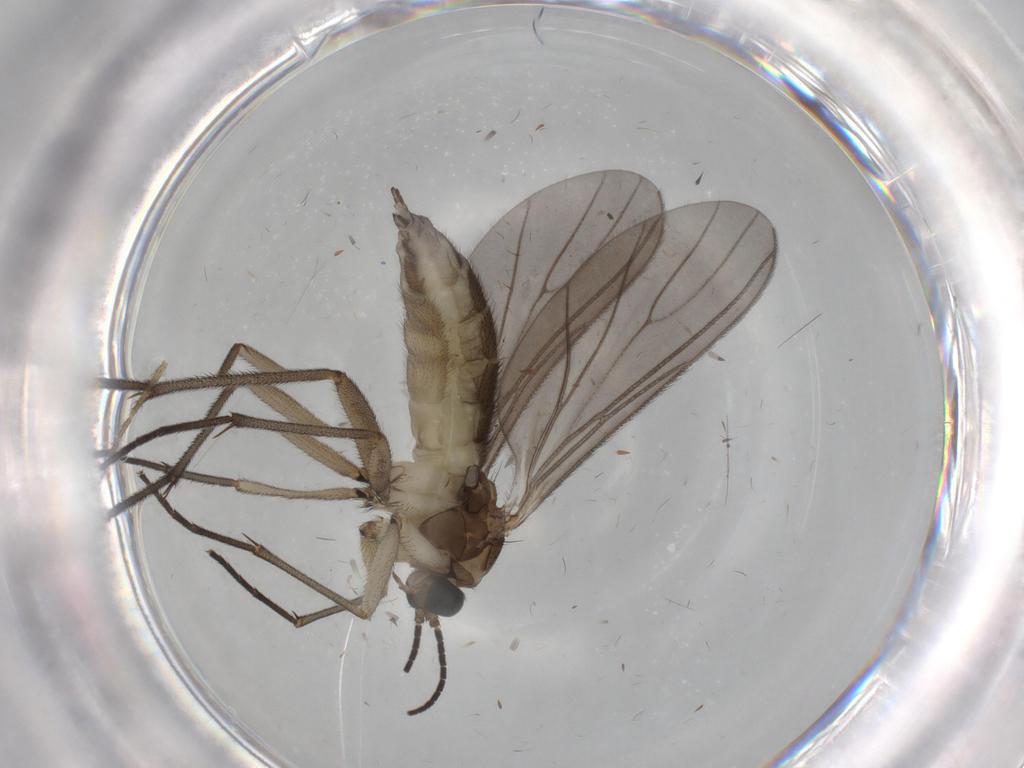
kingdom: Animalia
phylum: Arthropoda
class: Insecta
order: Diptera
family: Sciaridae
